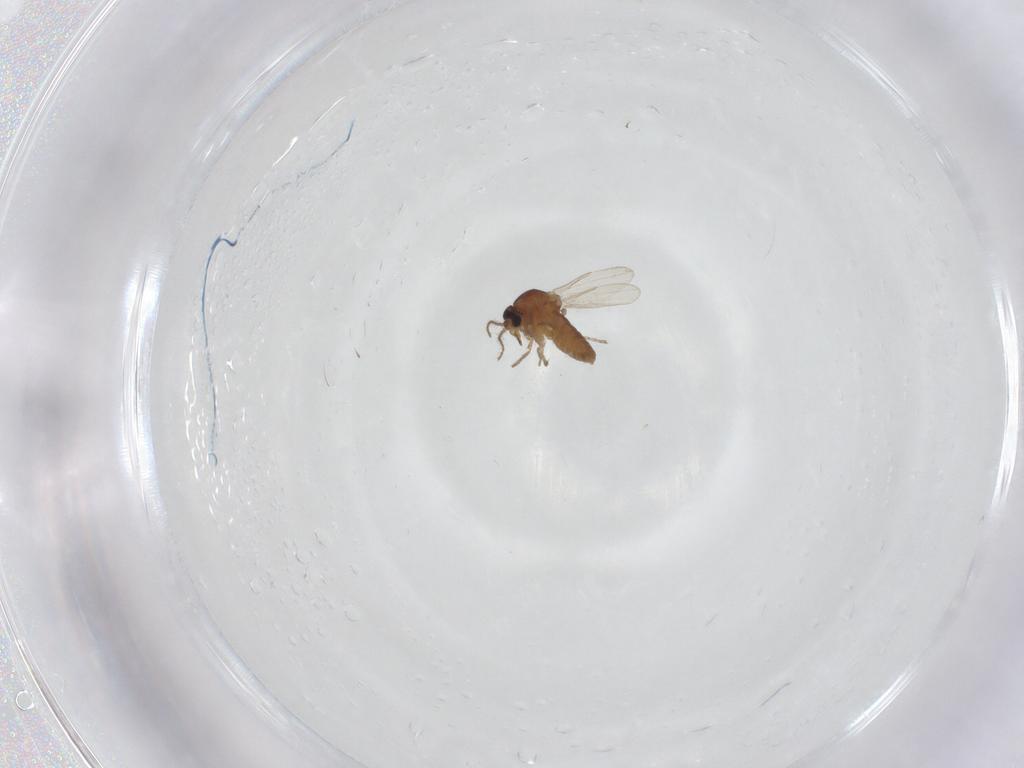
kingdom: Animalia
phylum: Arthropoda
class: Insecta
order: Diptera
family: Ceratopogonidae
